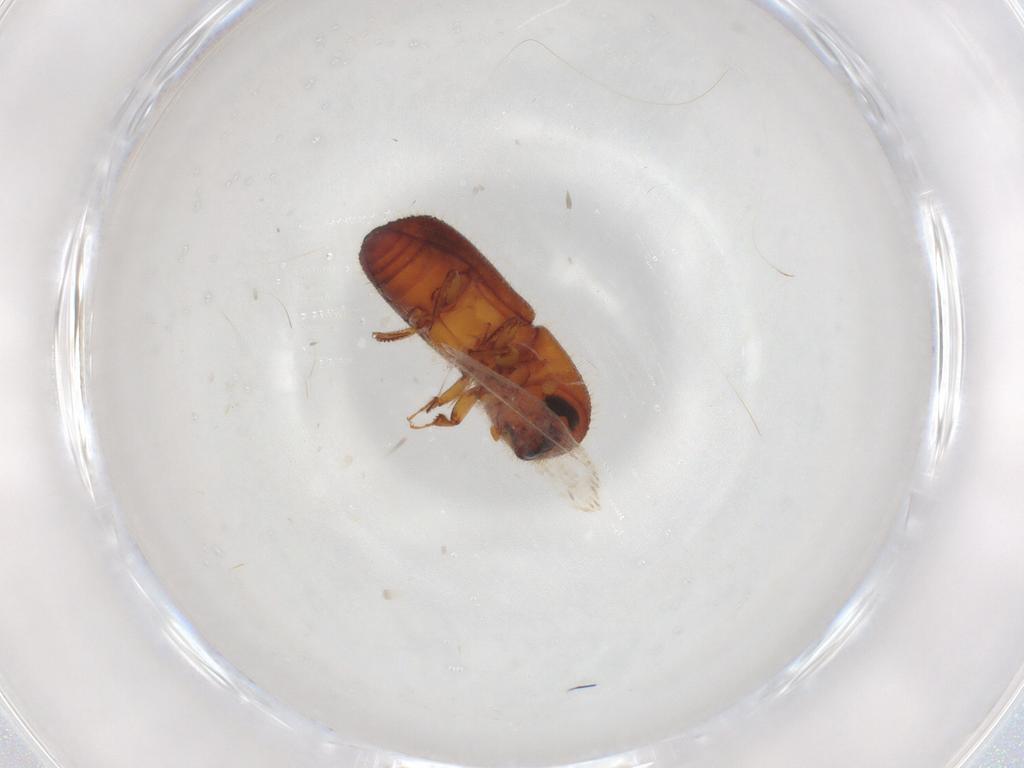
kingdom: Animalia
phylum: Arthropoda
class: Insecta
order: Coleoptera
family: Curculionidae
